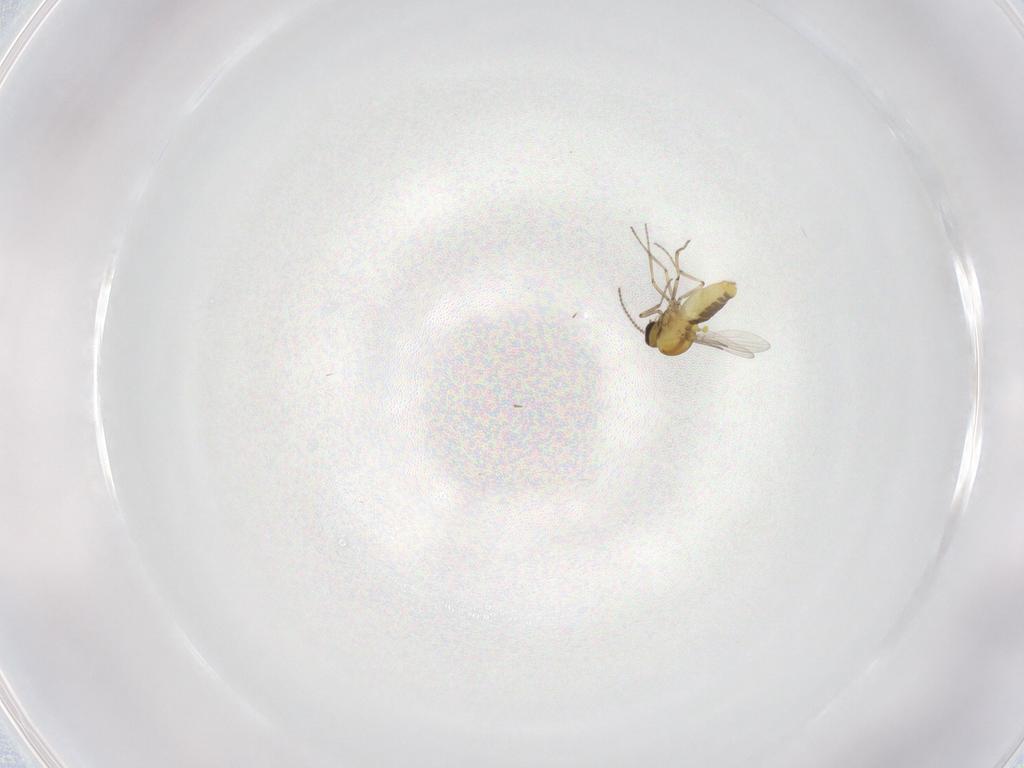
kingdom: Animalia
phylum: Arthropoda
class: Insecta
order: Diptera
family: Ceratopogonidae
